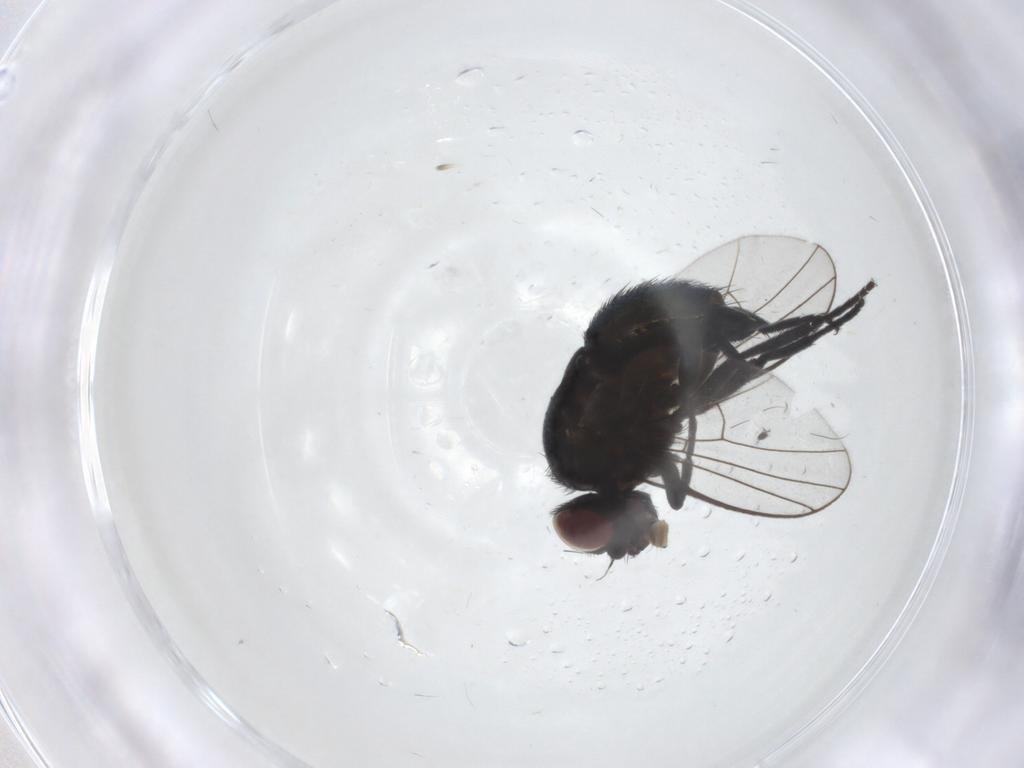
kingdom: Animalia
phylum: Arthropoda
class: Insecta
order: Diptera
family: Agromyzidae
